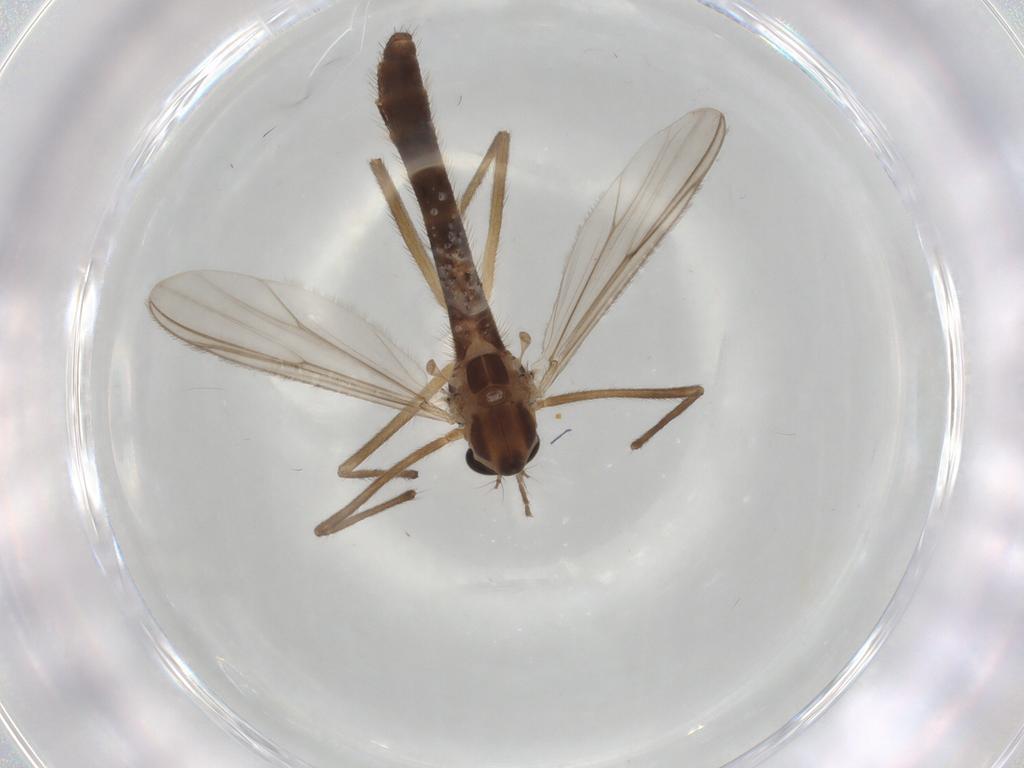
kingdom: Animalia
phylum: Arthropoda
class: Insecta
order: Diptera
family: Chironomidae
